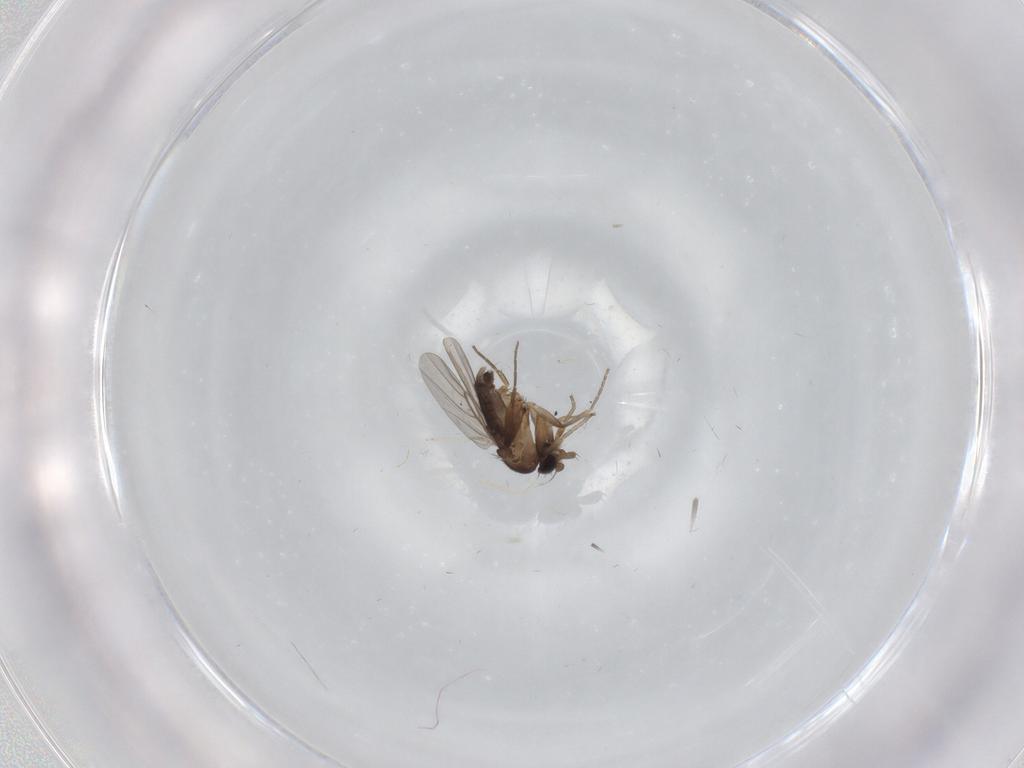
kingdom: Animalia
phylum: Arthropoda
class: Insecta
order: Diptera
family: Cecidomyiidae
